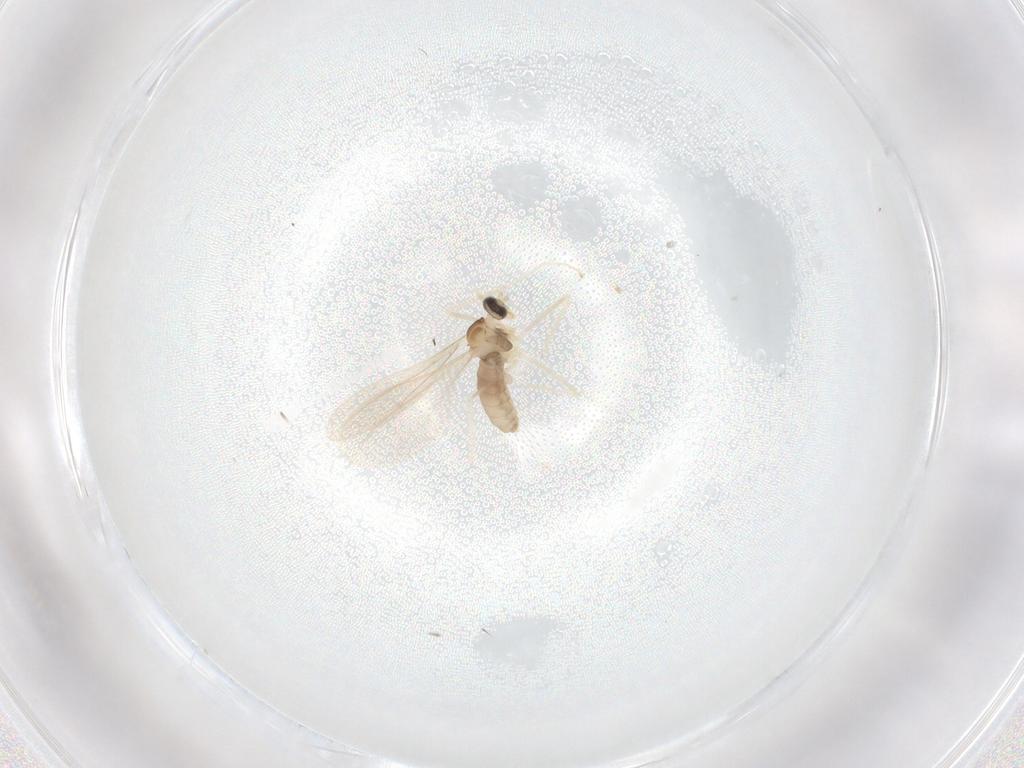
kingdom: Animalia
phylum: Arthropoda
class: Insecta
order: Diptera
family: Cecidomyiidae
